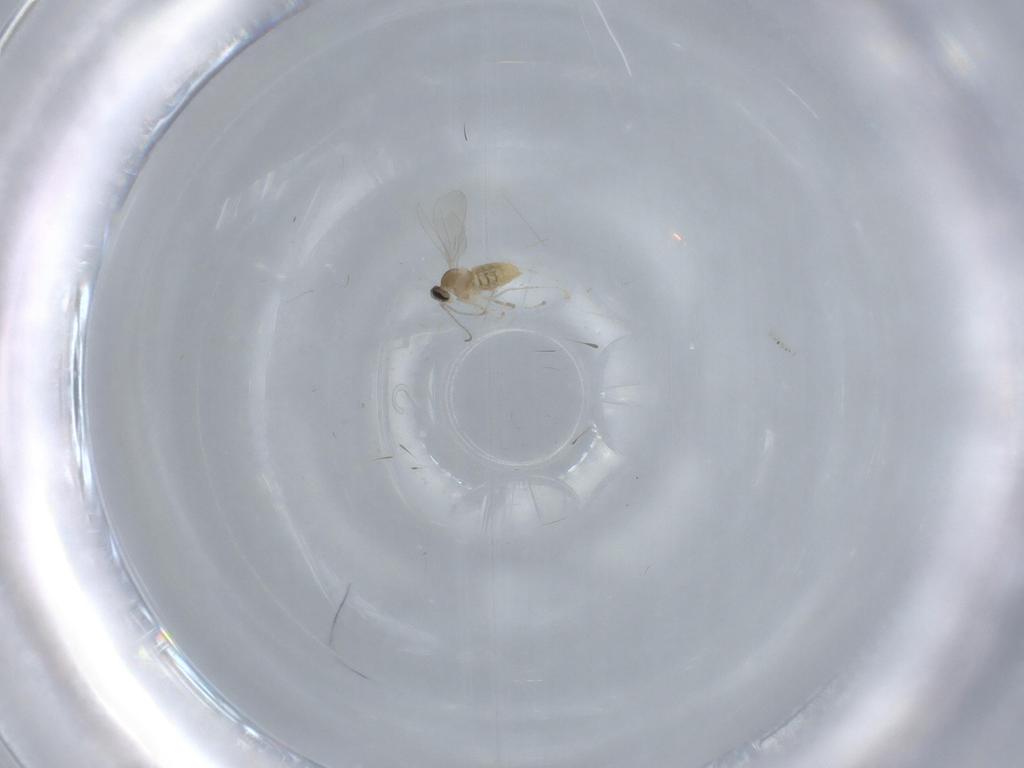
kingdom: Animalia
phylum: Arthropoda
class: Insecta
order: Diptera
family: Cecidomyiidae
